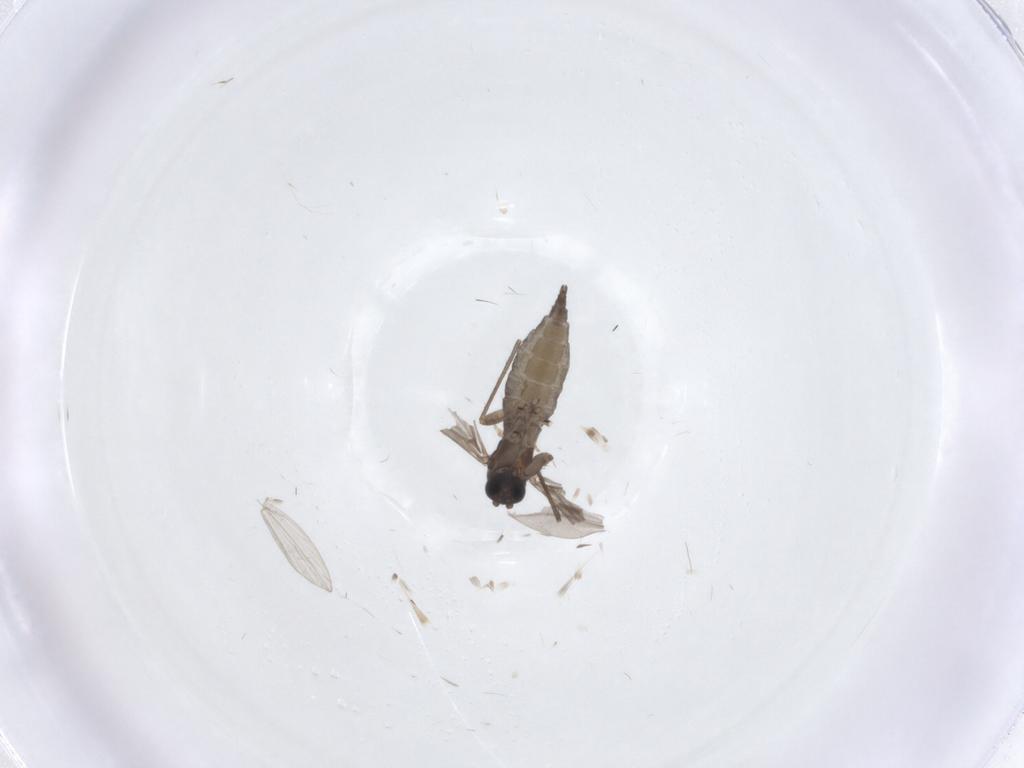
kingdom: Animalia
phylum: Arthropoda
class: Insecta
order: Diptera
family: Sciaridae
